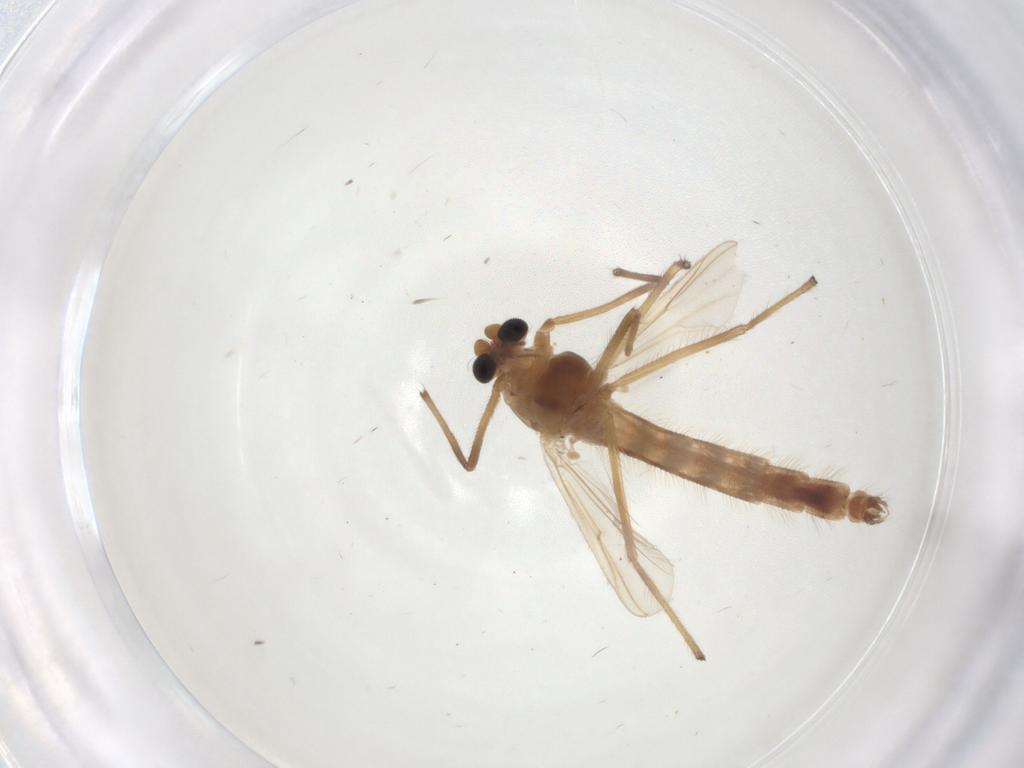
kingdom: Animalia
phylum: Arthropoda
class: Insecta
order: Diptera
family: Chironomidae
